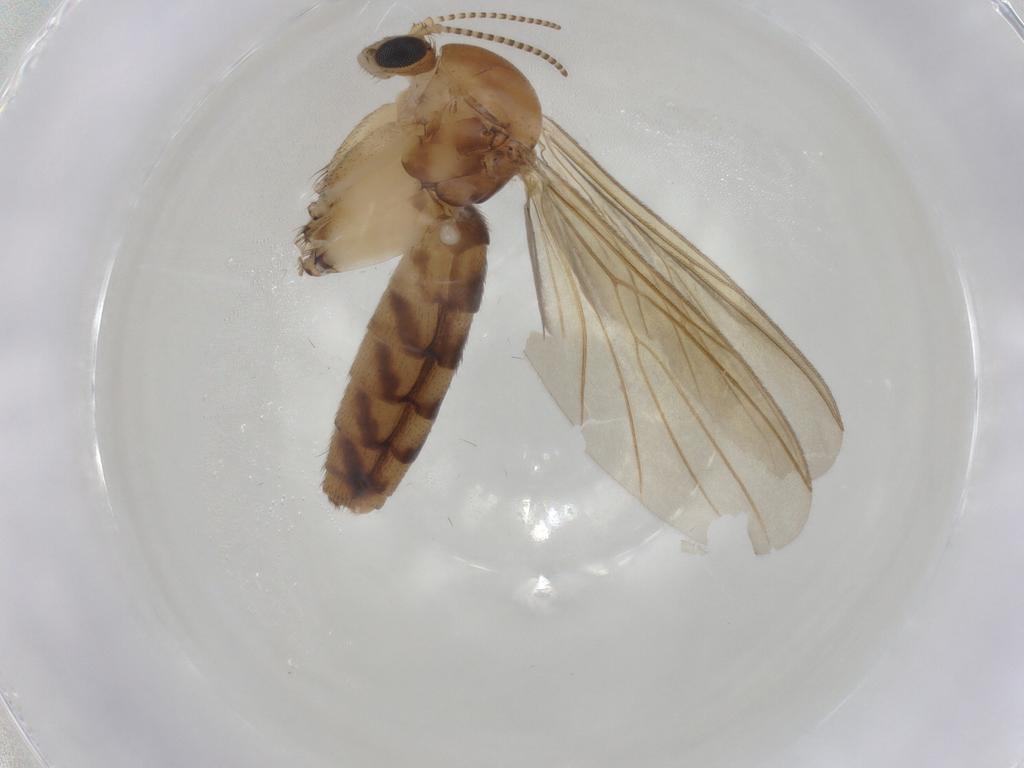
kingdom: Animalia
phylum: Arthropoda
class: Insecta
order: Diptera
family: Chironomidae
